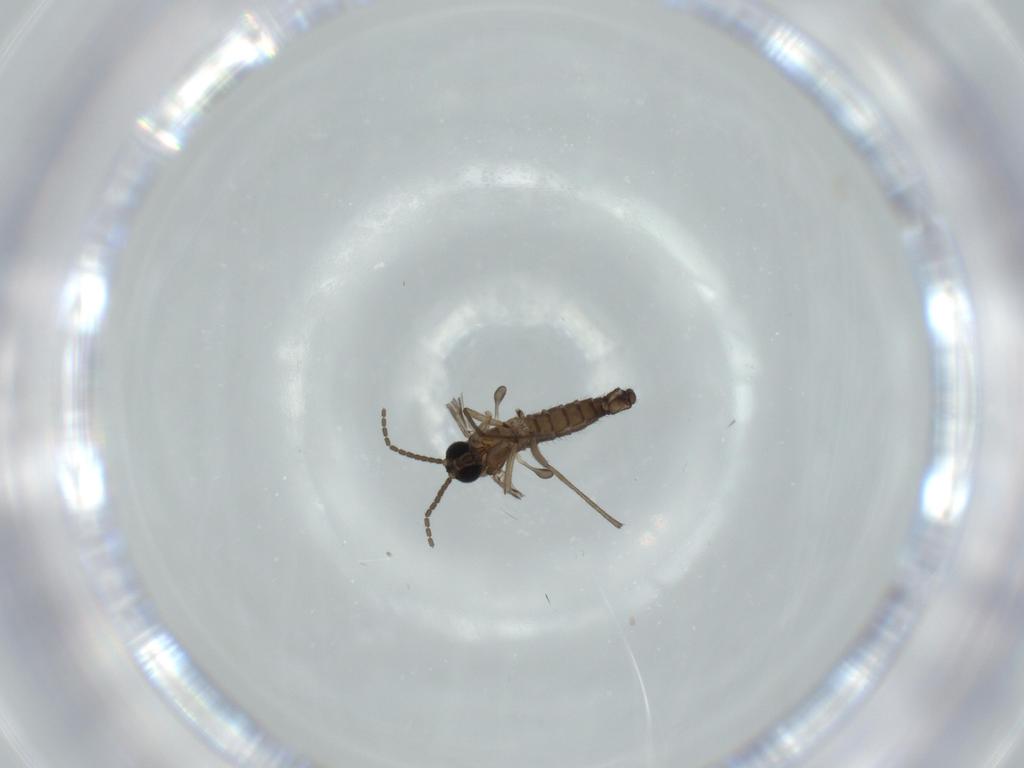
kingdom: Animalia
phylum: Arthropoda
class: Insecta
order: Diptera
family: Sciaridae
